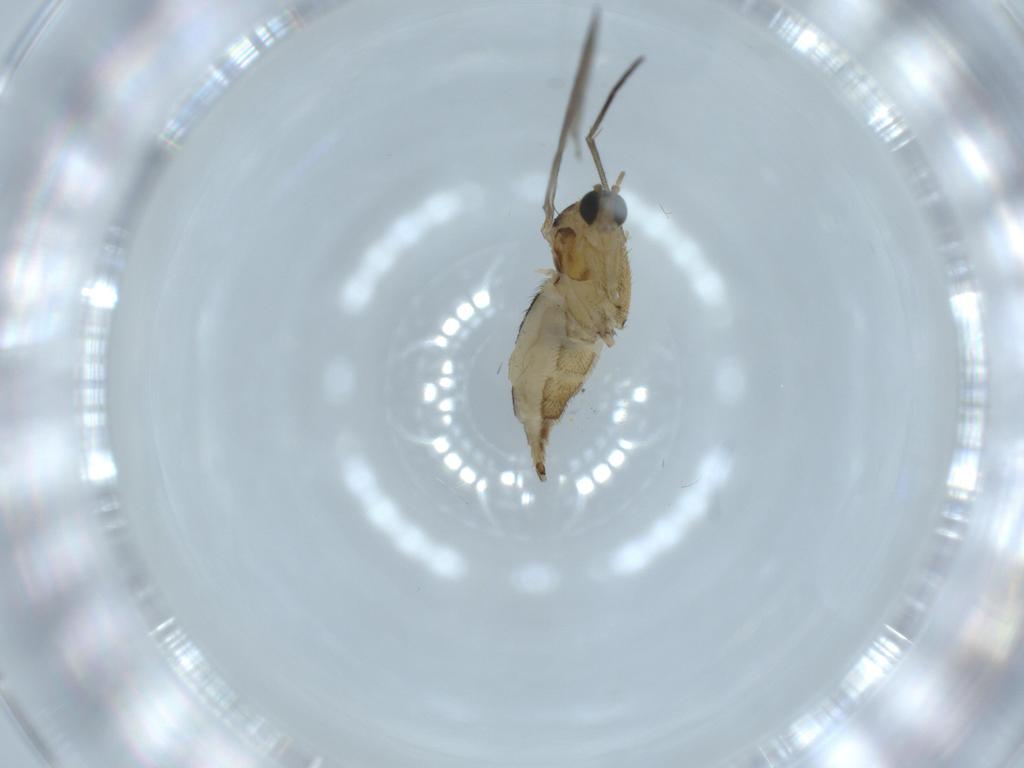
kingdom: Animalia
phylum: Arthropoda
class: Insecta
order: Diptera
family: Sciaridae
